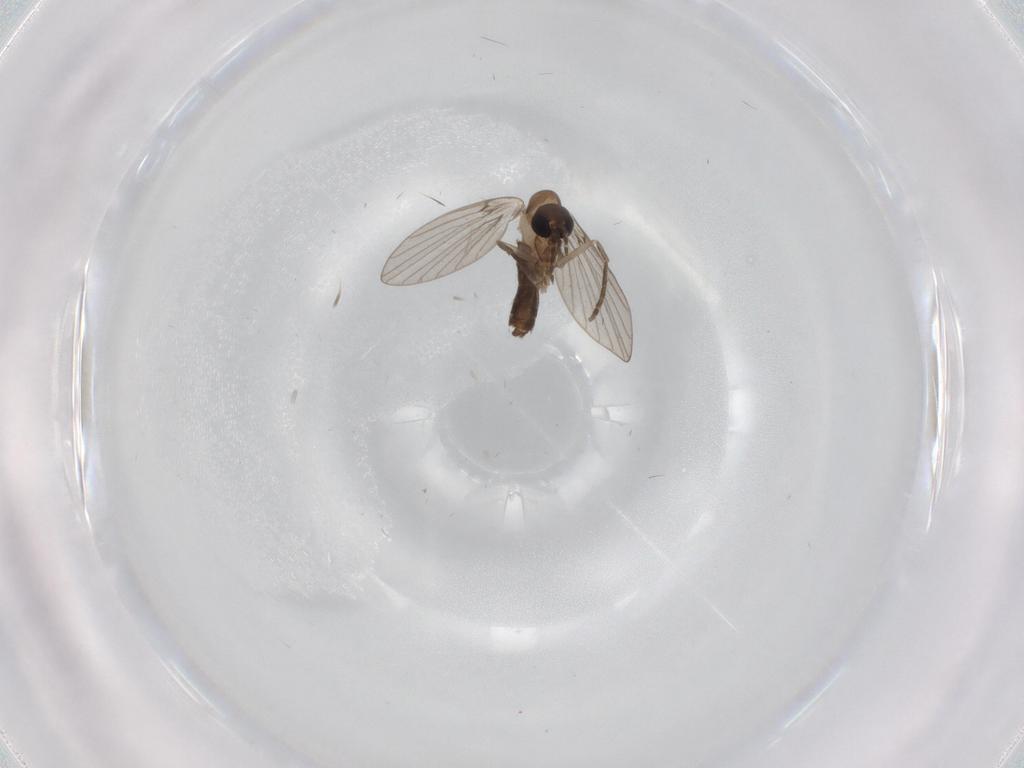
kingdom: Animalia
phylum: Arthropoda
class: Insecta
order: Diptera
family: Psychodidae
